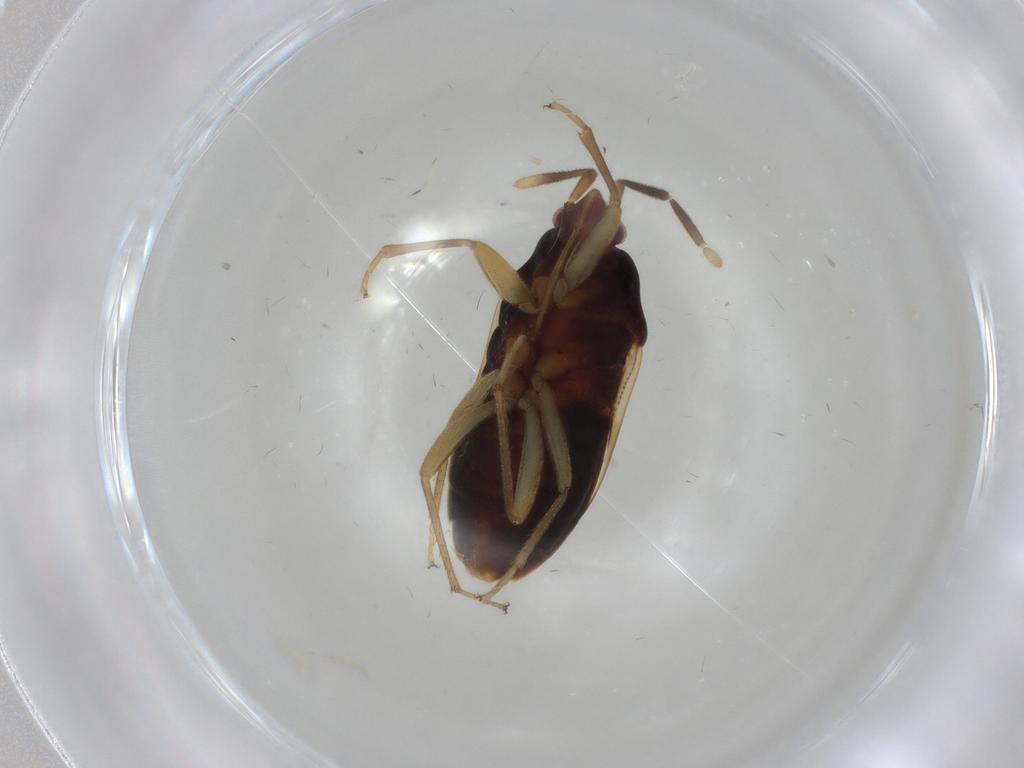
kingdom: Animalia
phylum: Arthropoda
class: Insecta
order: Hemiptera
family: Rhyparochromidae
